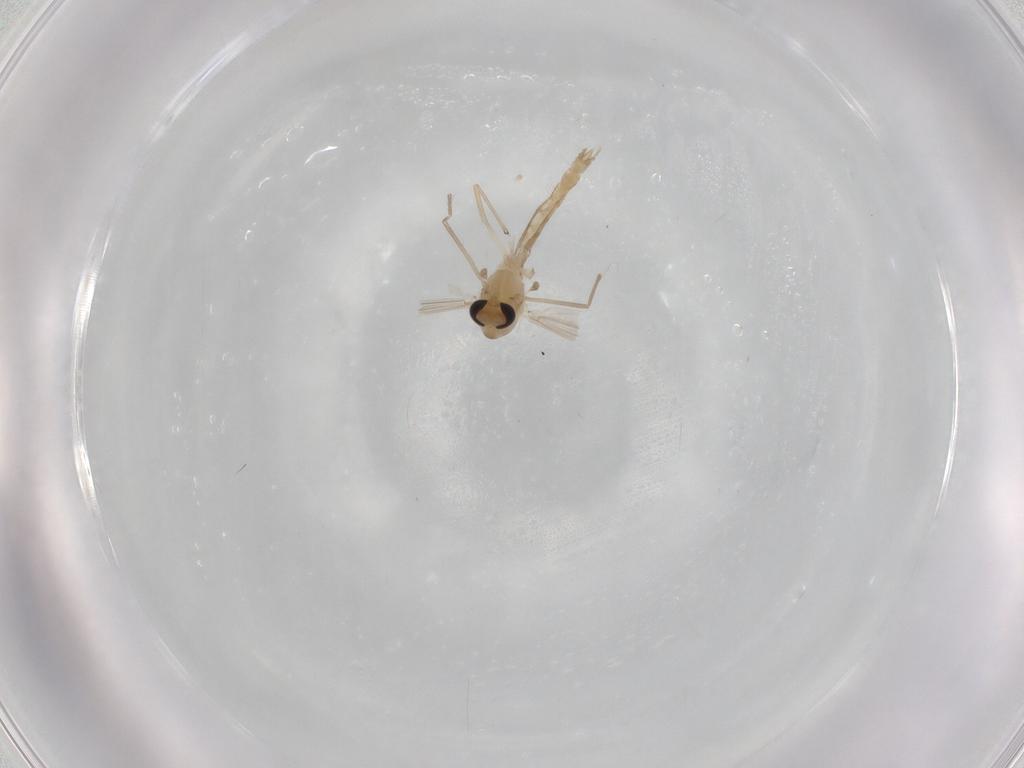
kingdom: Animalia
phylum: Arthropoda
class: Insecta
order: Diptera
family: Chironomidae
